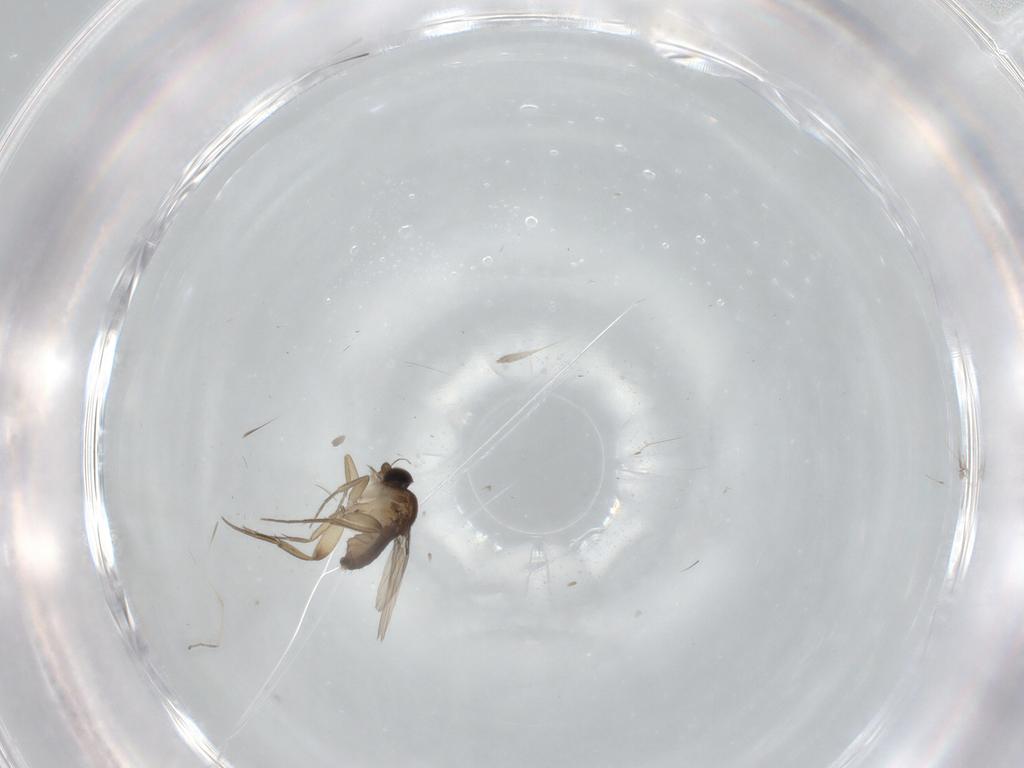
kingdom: Animalia
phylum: Arthropoda
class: Insecta
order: Diptera
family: Phoridae
